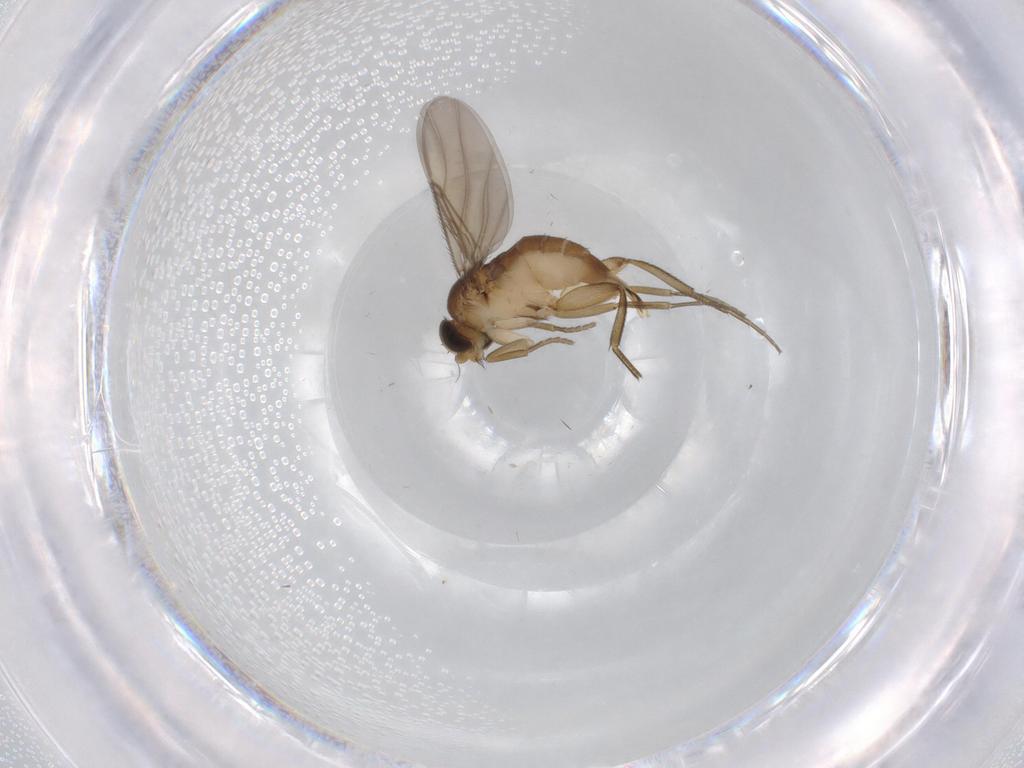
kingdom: Animalia
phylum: Arthropoda
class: Insecta
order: Diptera
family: Phoridae
